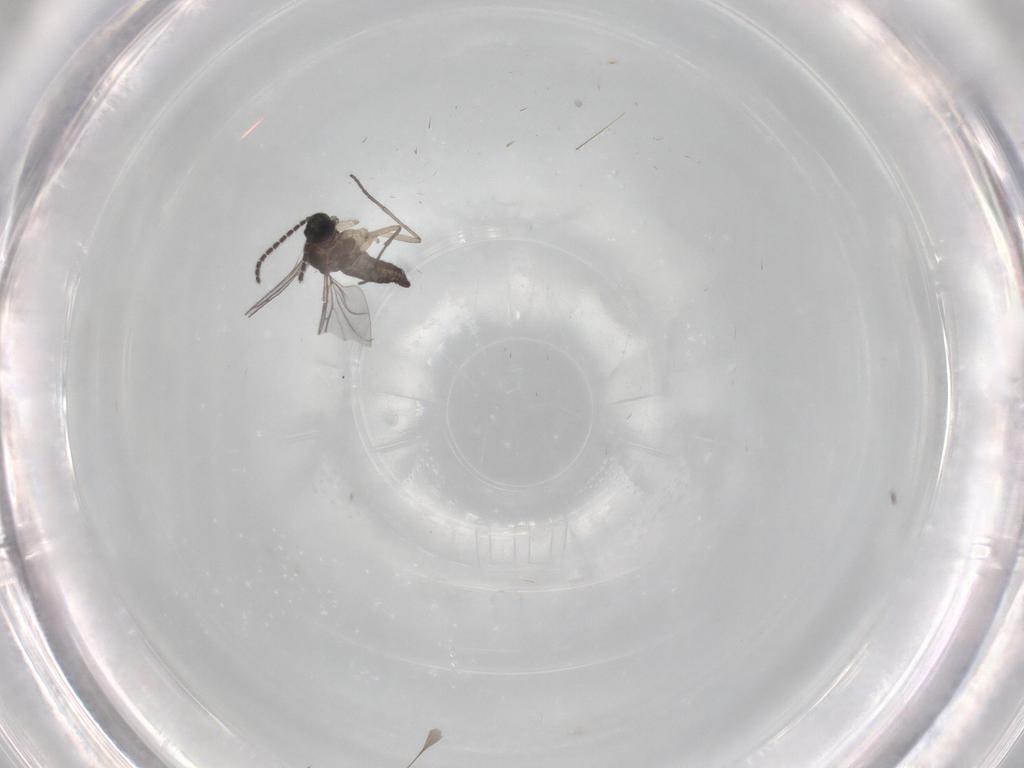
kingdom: Animalia
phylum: Arthropoda
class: Insecta
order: Diptera
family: Sciaridae
